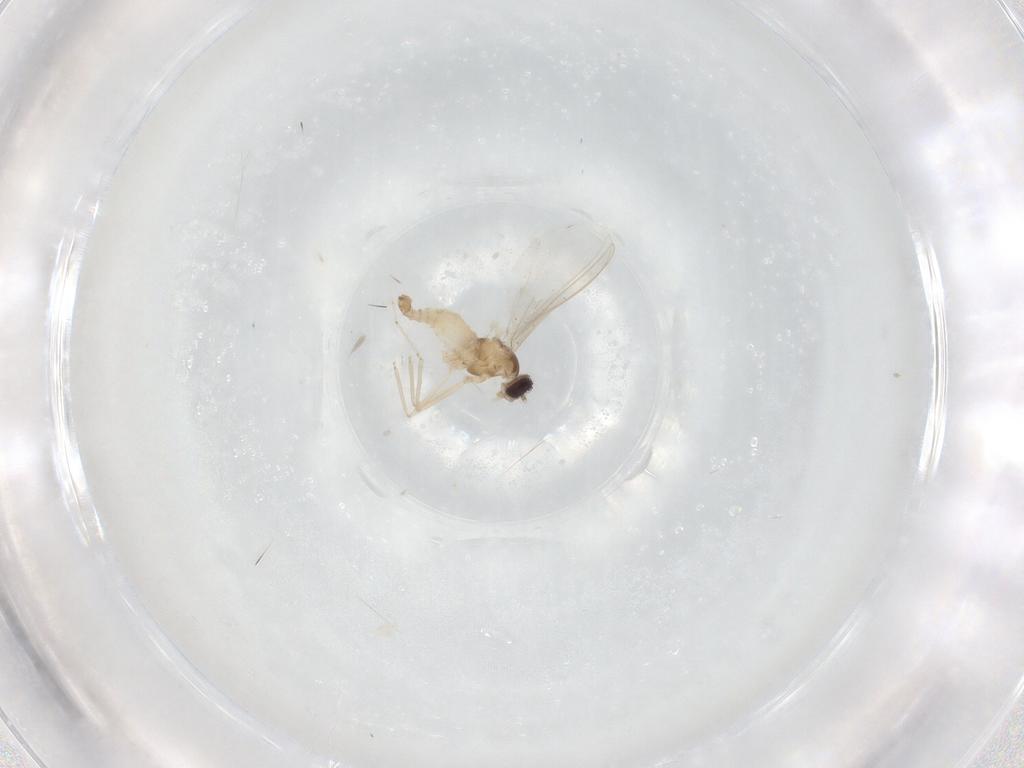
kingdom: Animalia
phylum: Arthropoda
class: Insecta
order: Diptera
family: Cecidomyiidae
